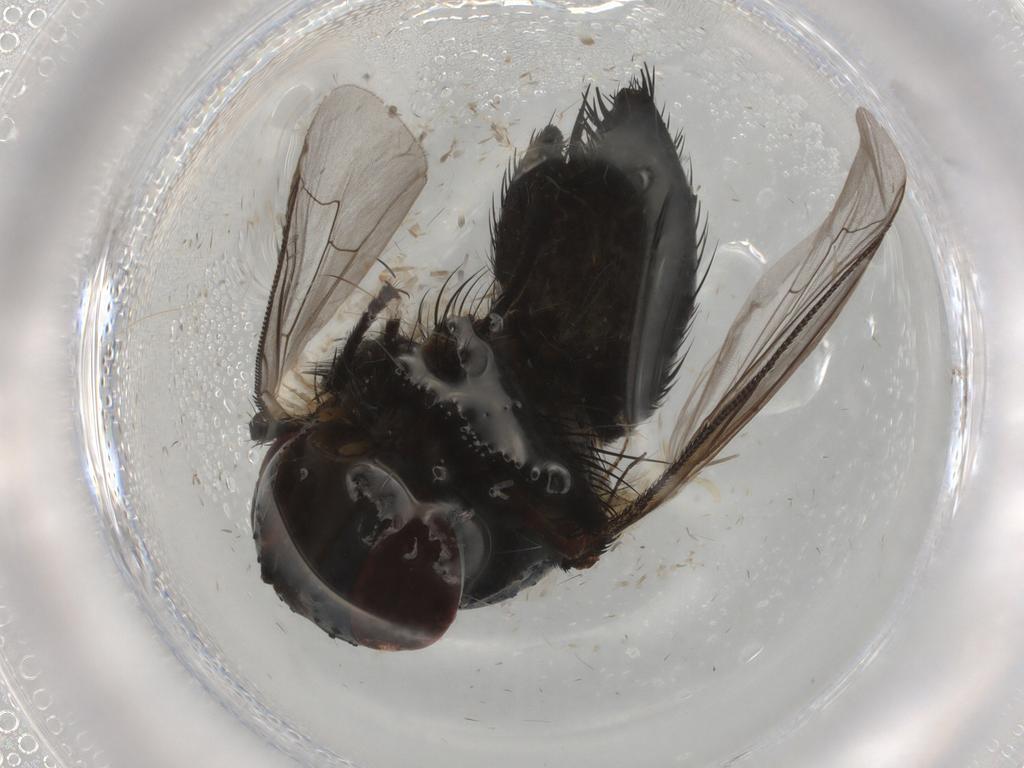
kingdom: Animalia
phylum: Arthropoda
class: Insecta
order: Diptera
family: Tachinidae
